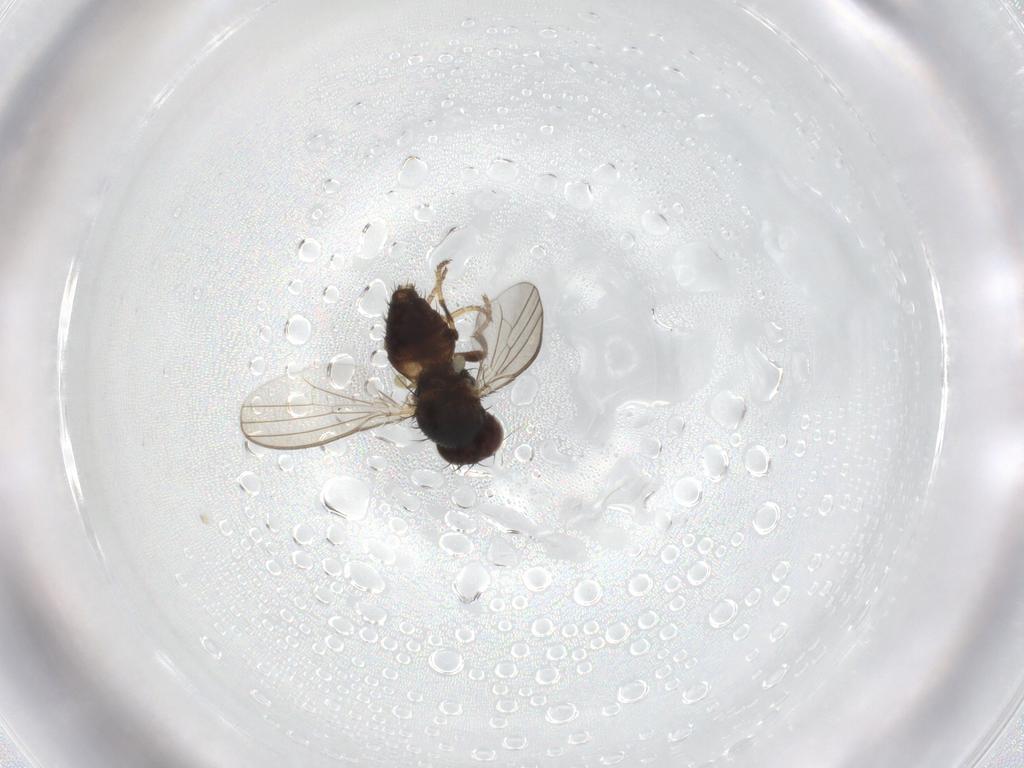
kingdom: Animalia
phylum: Arthropoda
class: Insecta
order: Diptera
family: Milichiidae
